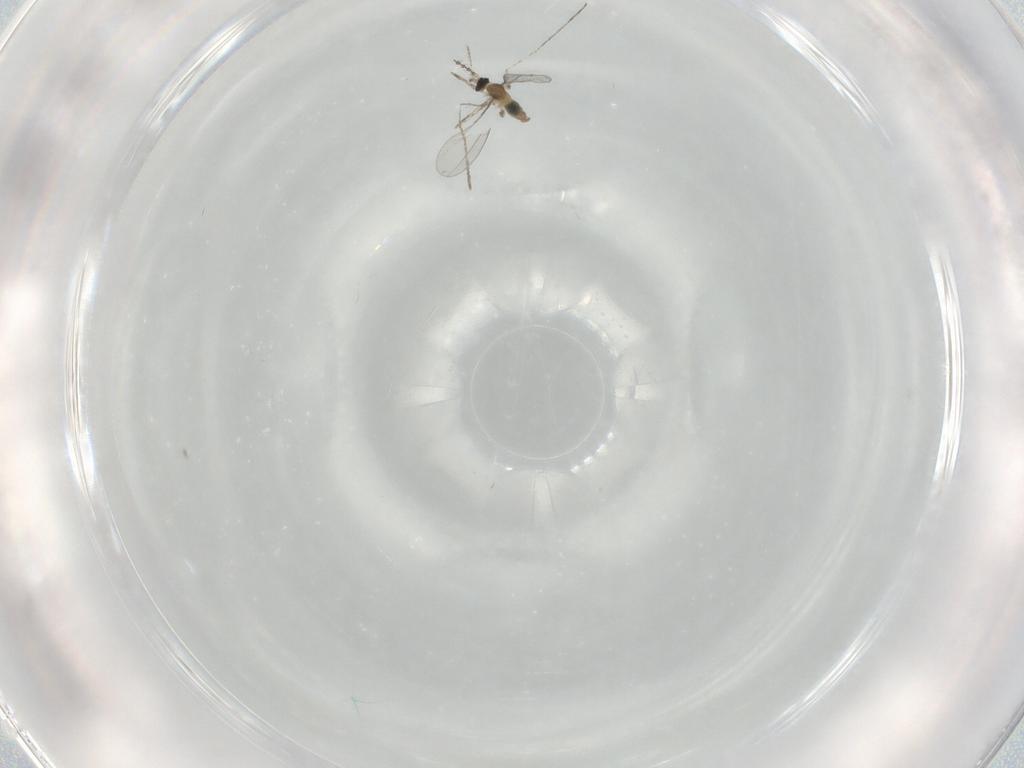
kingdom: Animalia
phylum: Arthropoda
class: Insecta
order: Diptera
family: Cecidomyiidae
